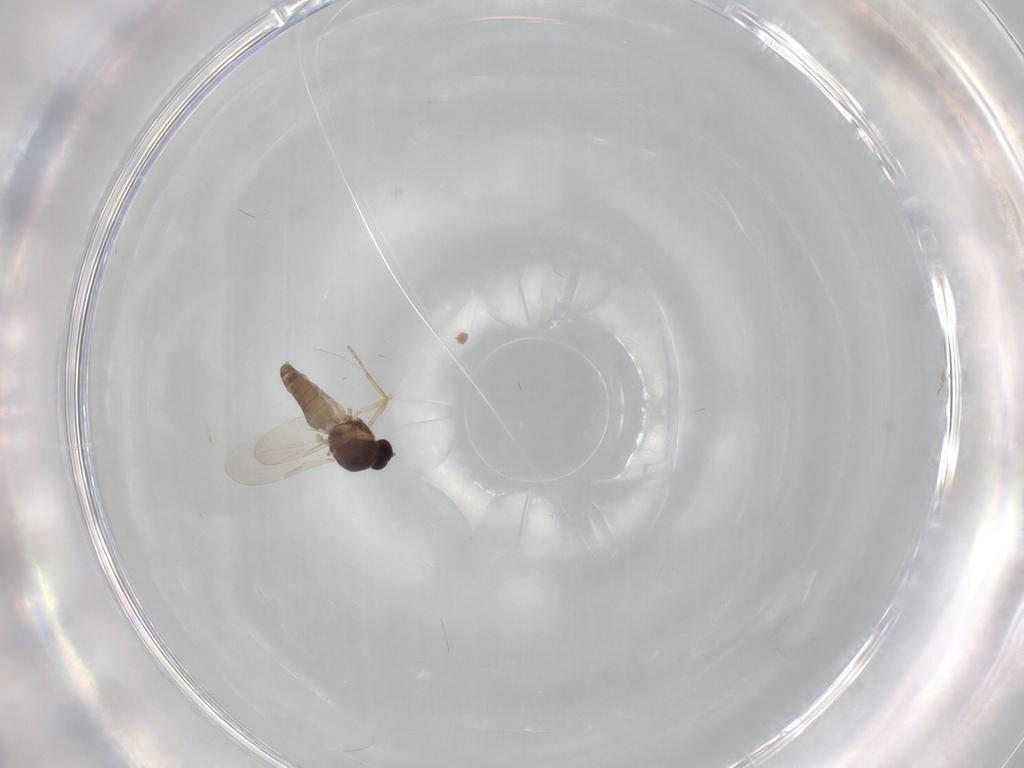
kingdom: Animalia
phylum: Arthropoda
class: Insecta
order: Diptera
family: Ceratopogonidae
